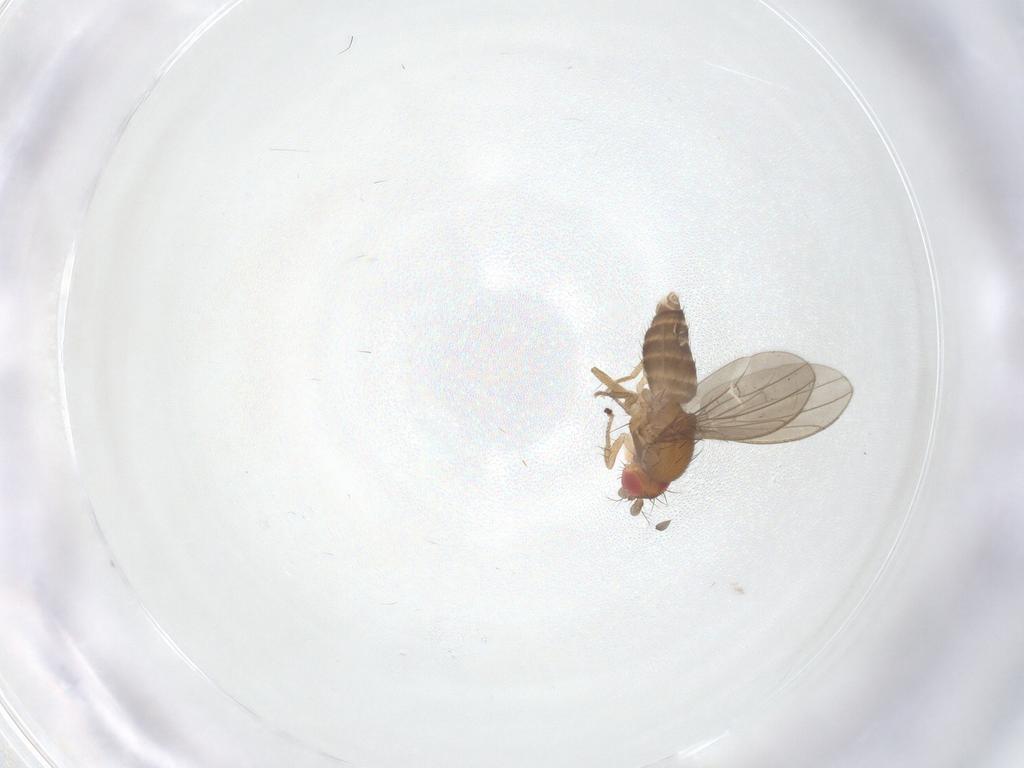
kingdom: Animalia
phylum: Arthropoda
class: Insecta
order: Diptera
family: Drosophilidae
